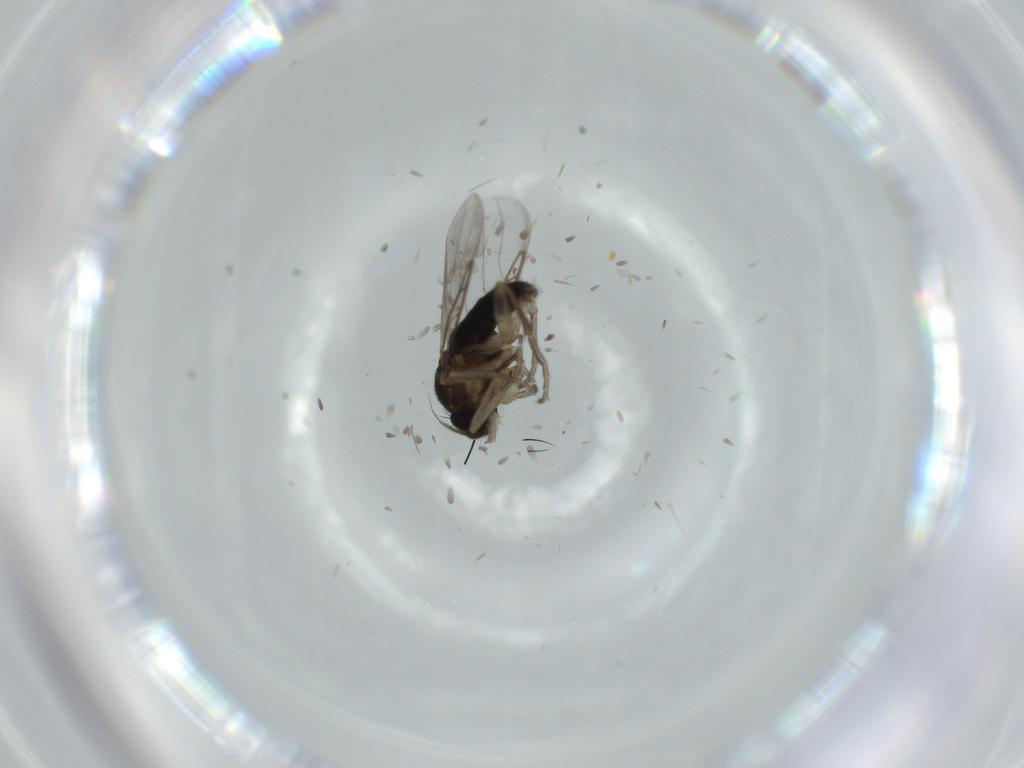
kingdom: Animalia
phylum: Arthropoda
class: Insecta
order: Diptera
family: Phoridae
